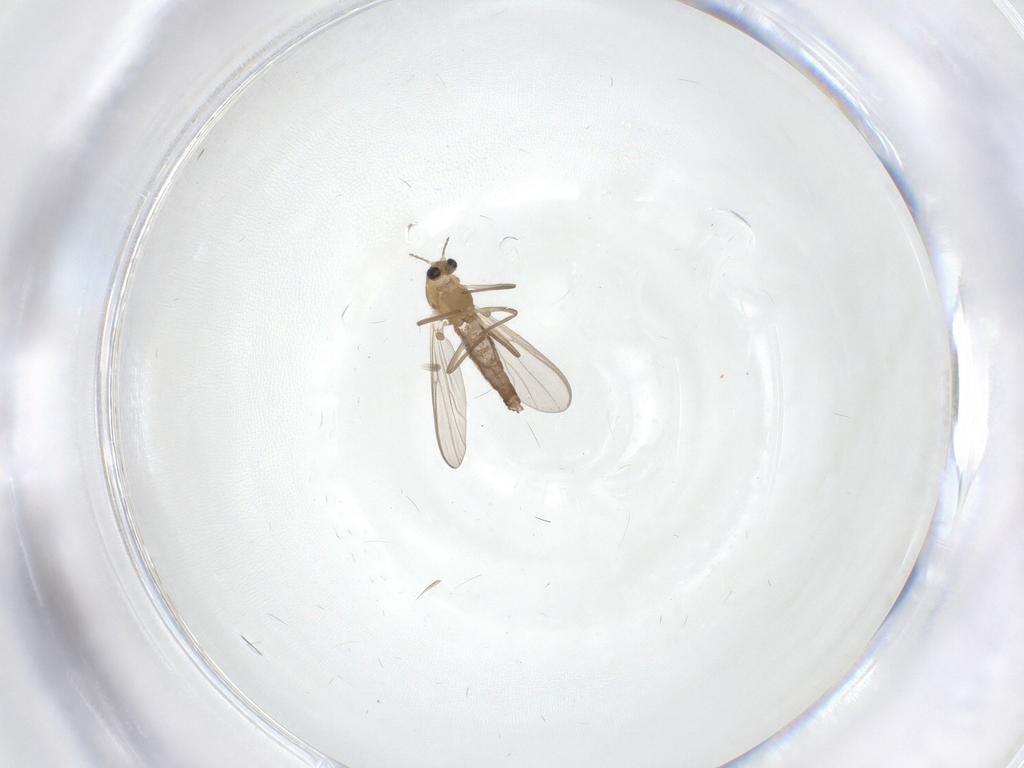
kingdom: Animalia
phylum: Arthropoda
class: Insecta
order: Diptera
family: Chironomidae
